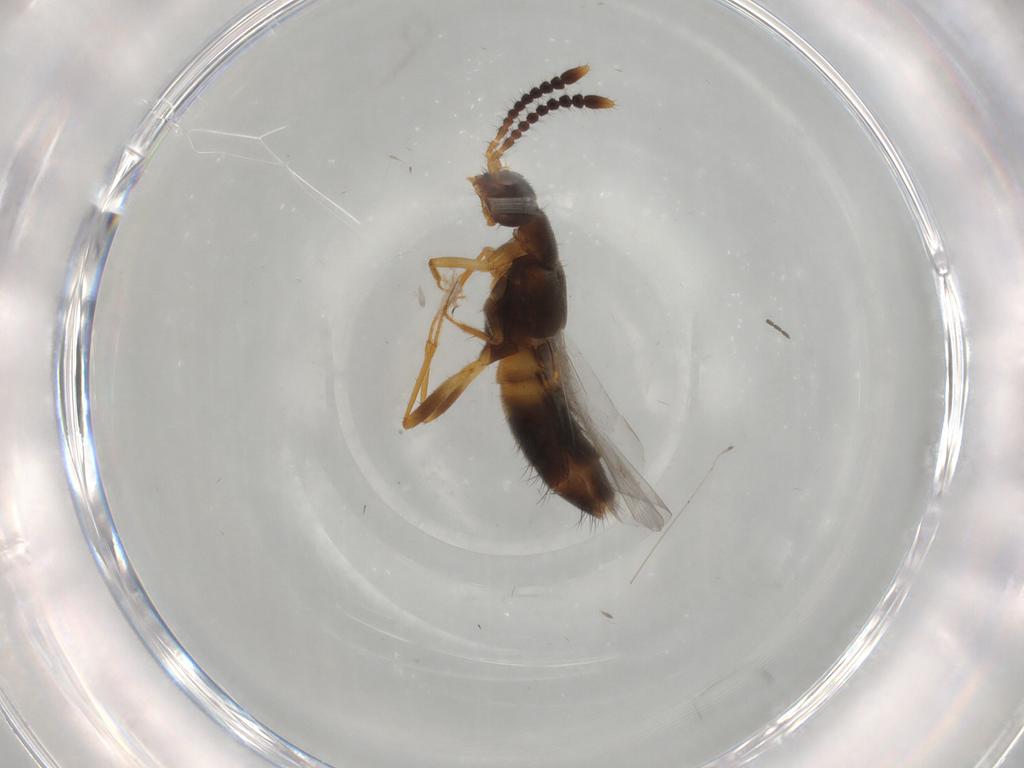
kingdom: Animalia
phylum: Arthropoda
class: Insecta
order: Coleoptera
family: Staphylinidae
